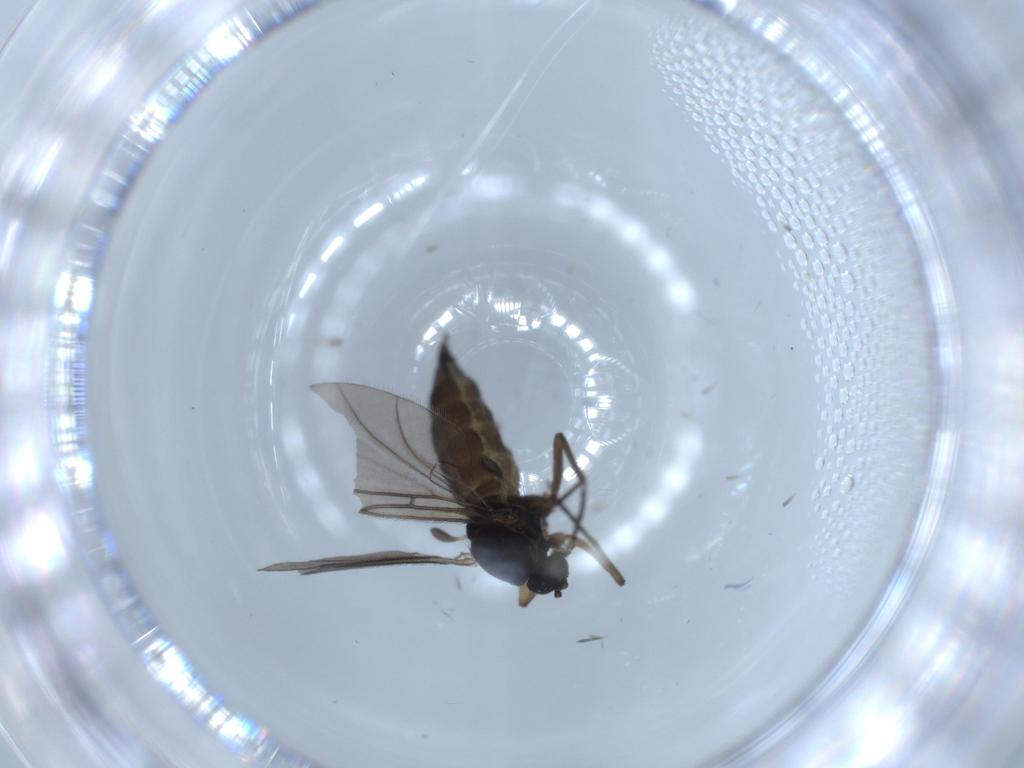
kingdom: Animalia
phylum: Arthropoda
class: Insecta
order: Diptera
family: Sciaridae
